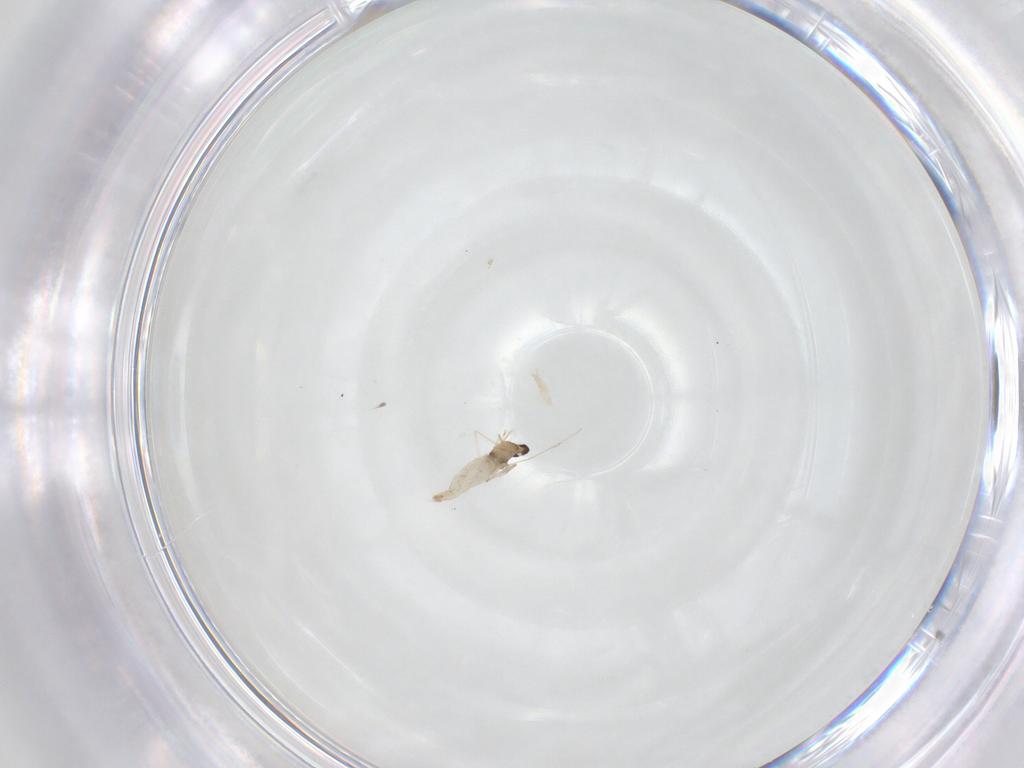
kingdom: Animalia
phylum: Arthropoda
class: Insecta
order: Diptera
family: Cecidomyiidae
